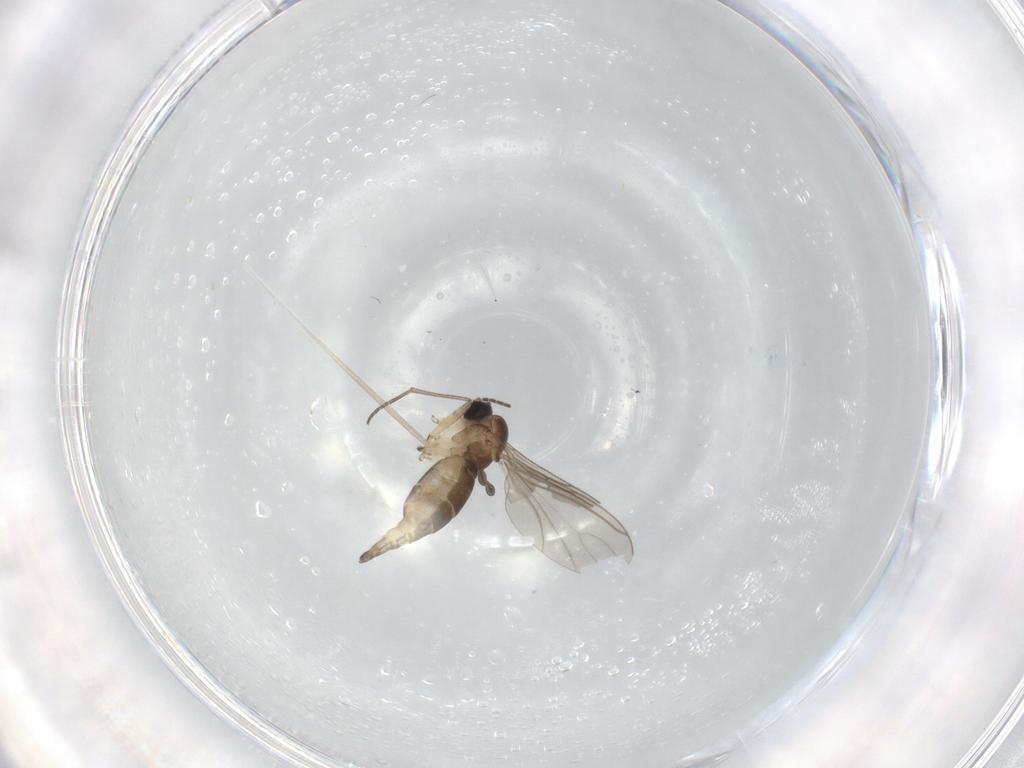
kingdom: Animalia
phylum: Arthropoda
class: Insecta
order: Diptera
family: Sciaridae
